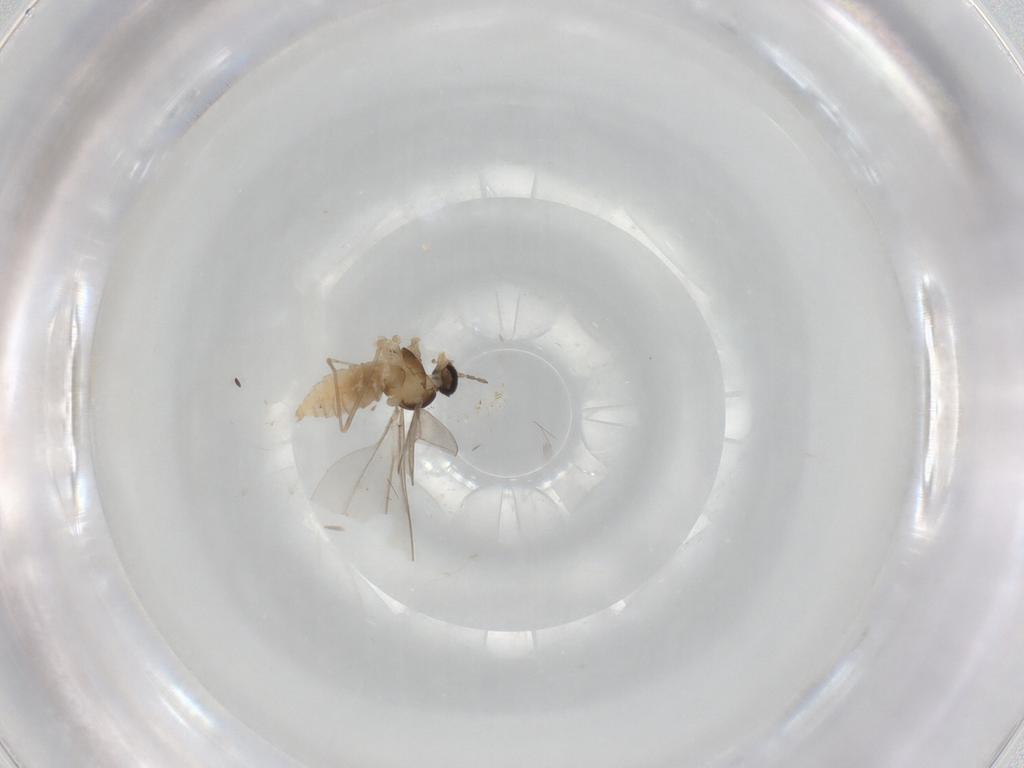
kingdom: Animalia
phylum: Arthropoda
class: Insecta
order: Diptera
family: Cecidomyiidae
